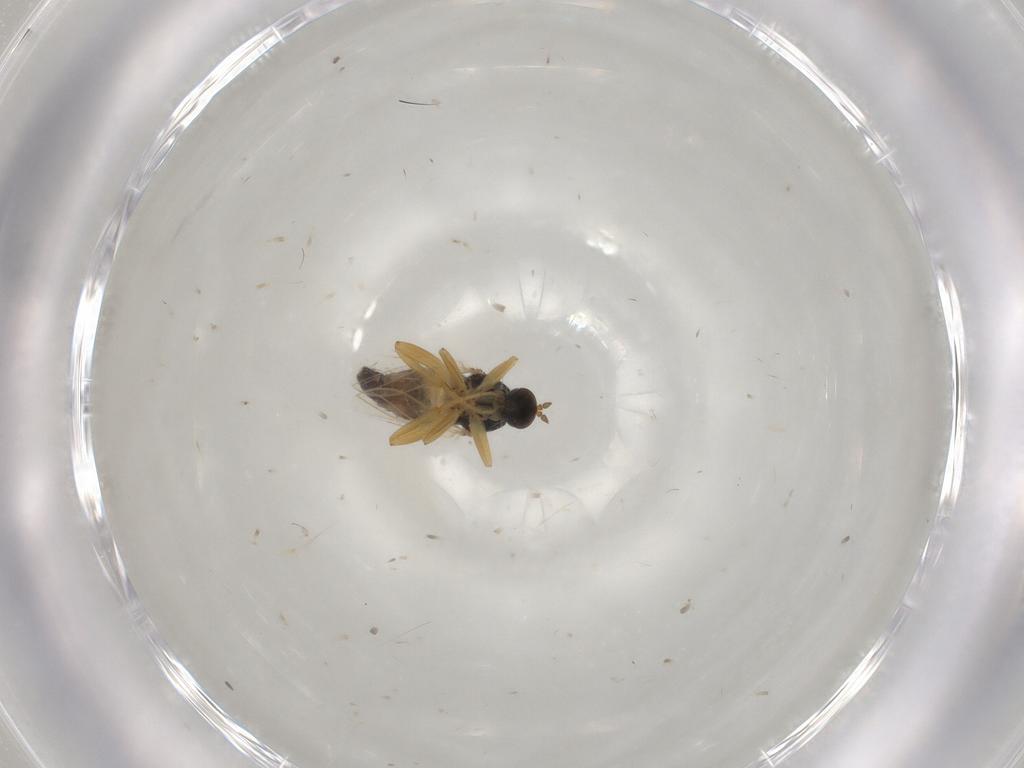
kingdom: Animalia
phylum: Arthropoda
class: Insecta
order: Diptera
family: Hybotidae
